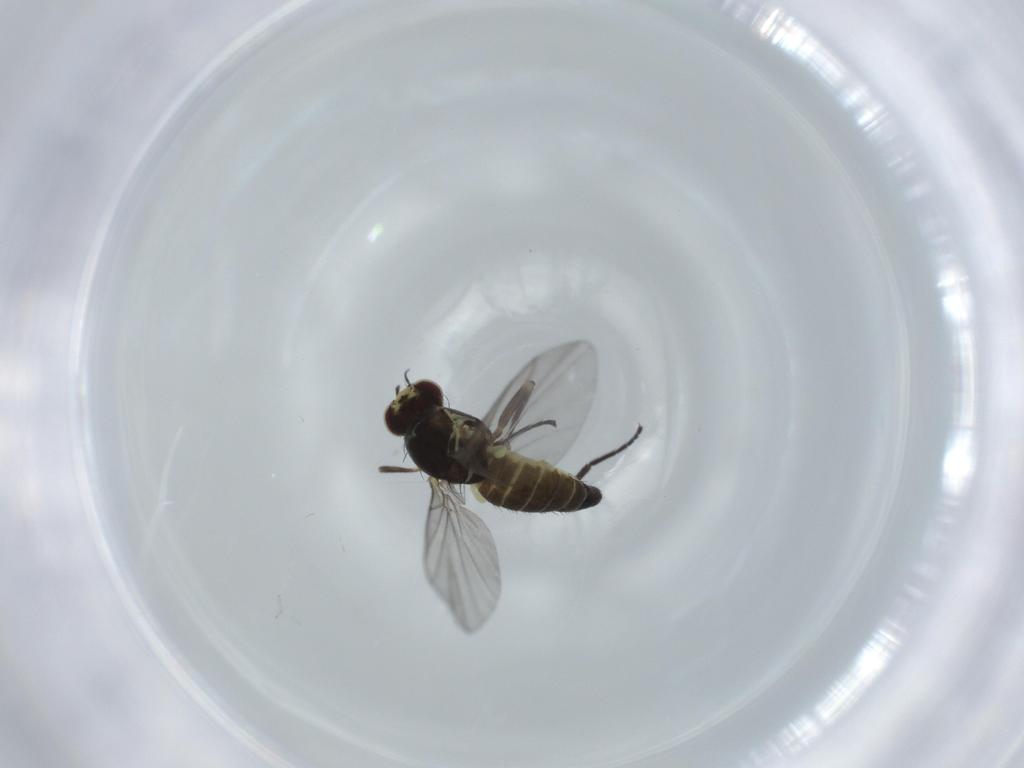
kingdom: Animalia
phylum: Arthropoda
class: Insecta
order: Diptera
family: Agromyzidae
